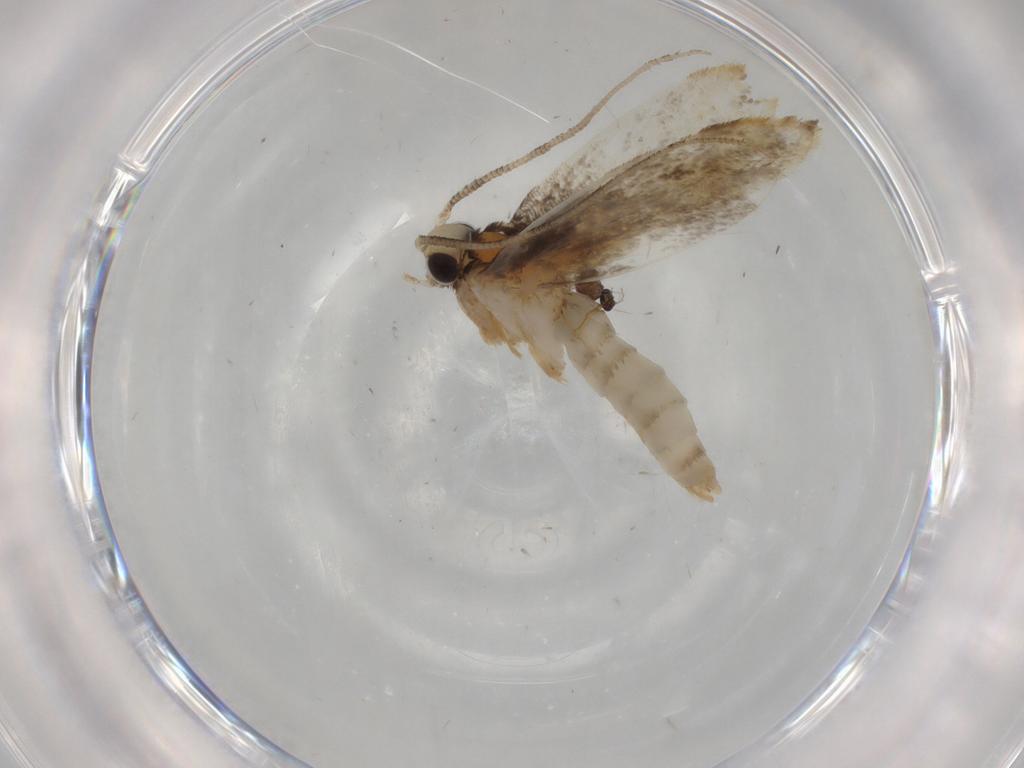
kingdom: Animalia
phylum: Arthropoda
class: Insecta
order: Lepidoptera
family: Tineidae
